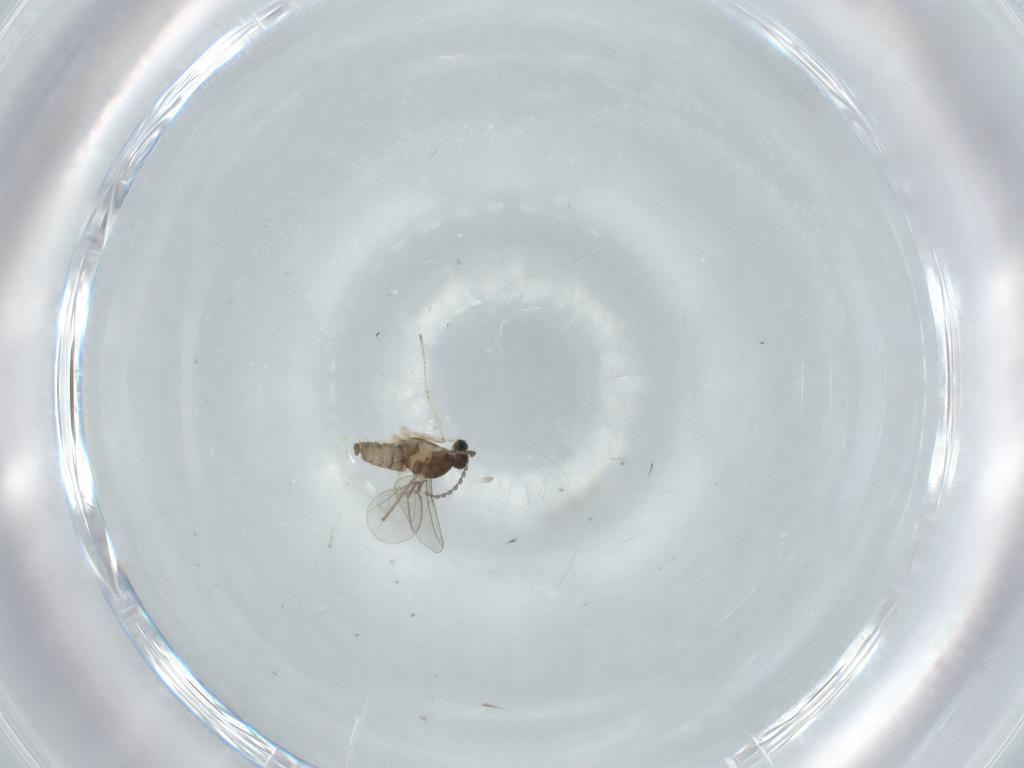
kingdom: Animalia
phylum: Arthropoda
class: Insecta
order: Diptera
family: Cecidomyiidae
